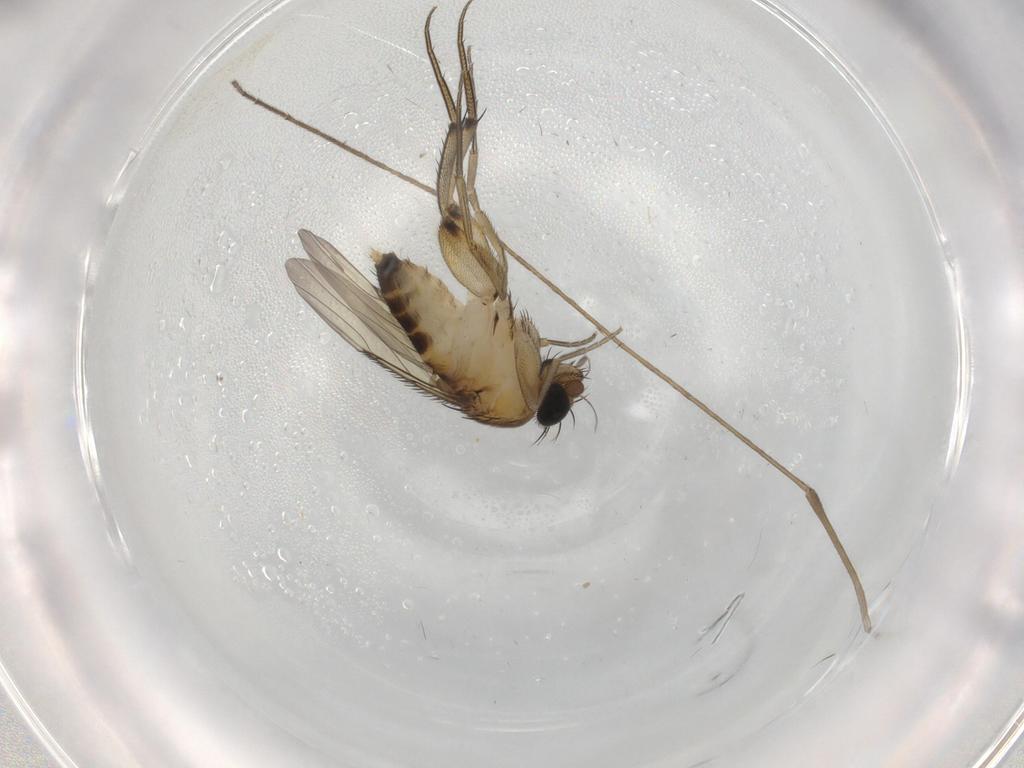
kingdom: Animalia
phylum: Arthropoda
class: Insecta
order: Diptera
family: Phoridae
